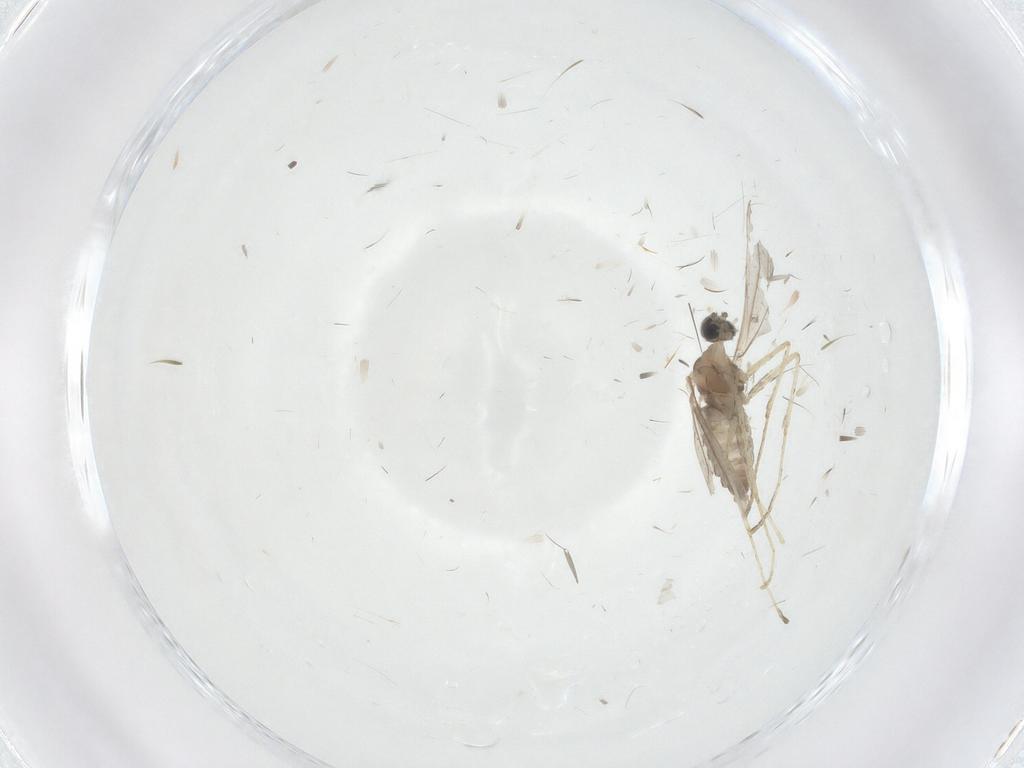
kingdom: Animalia
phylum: Arthropoda
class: Insecta
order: Diptera
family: Cecidomyiidae
